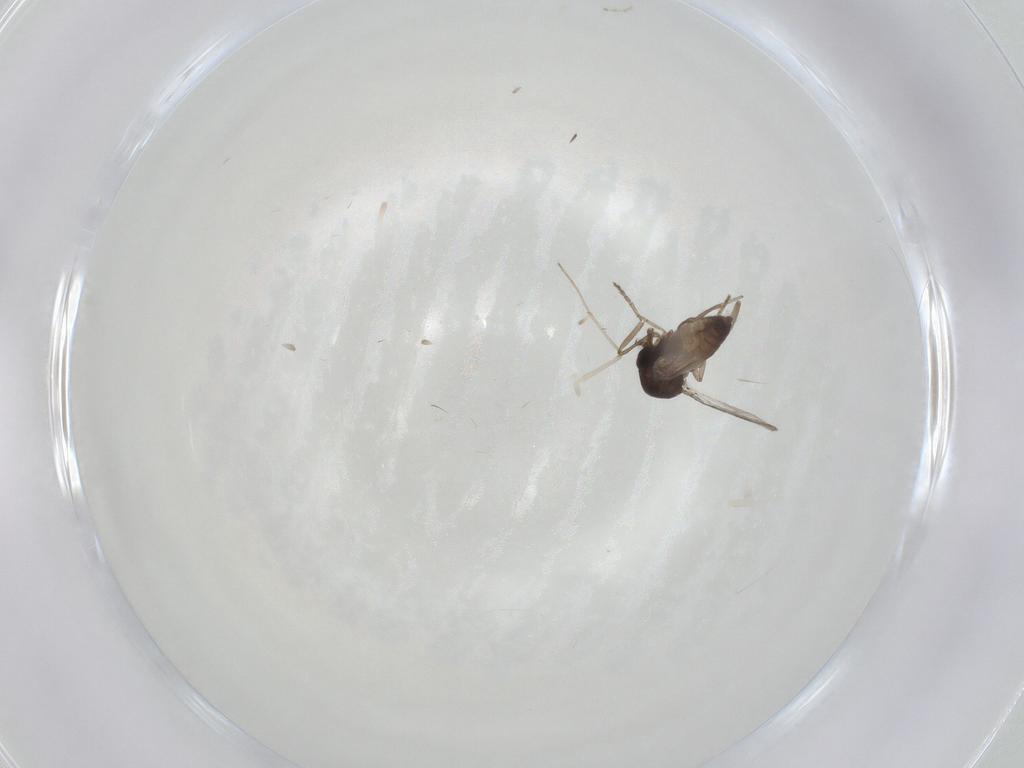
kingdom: Animalia
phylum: Arthropoda
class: Insecta
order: Diptera
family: Ceratopogonidae
